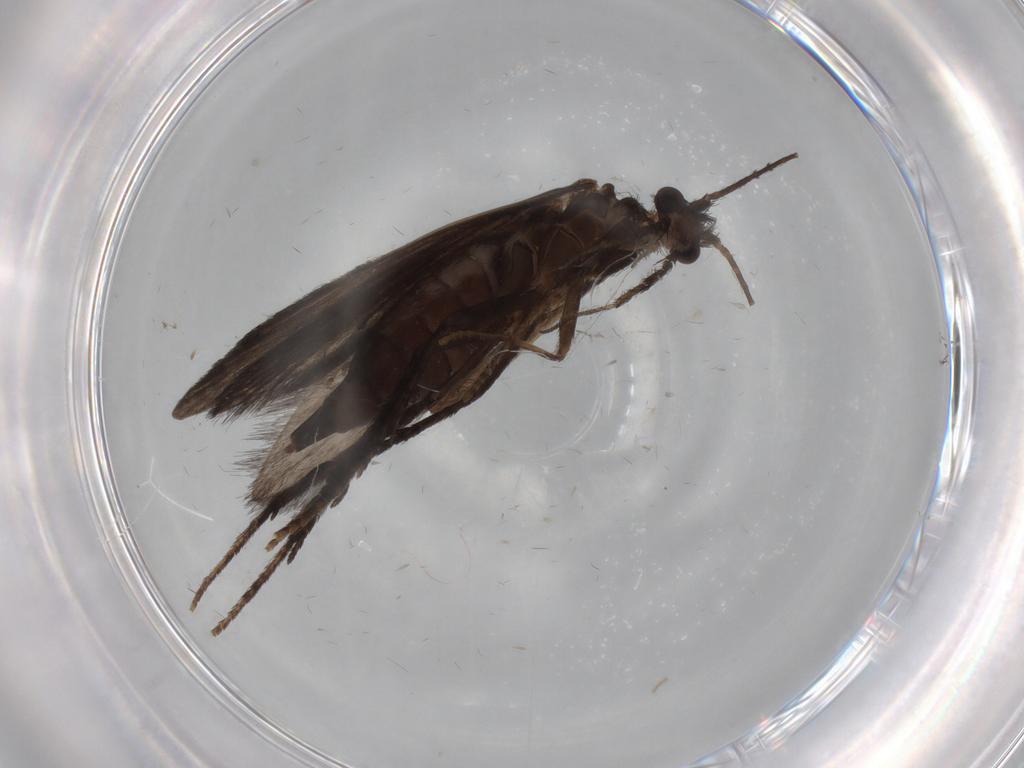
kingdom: Animalia
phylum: Arthropoda
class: Insecta
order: Trichoptera
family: Xiphocentronidae
